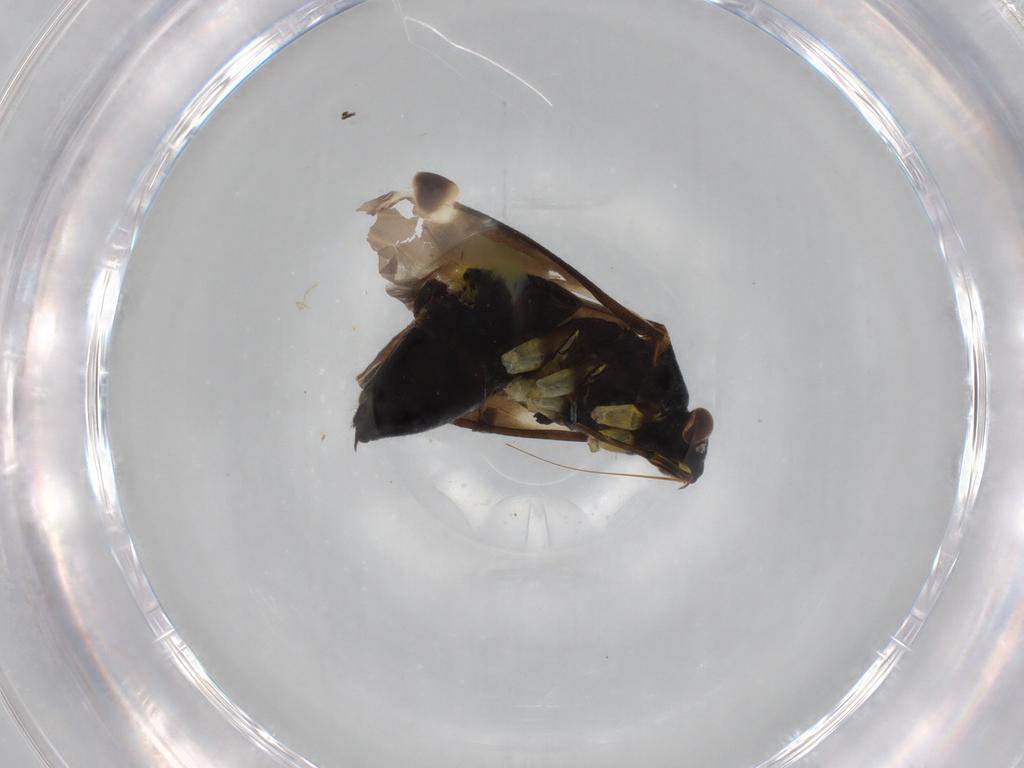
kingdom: Animalia
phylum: Arthropoda
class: Insecta
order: Hemiptera
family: Miridae
